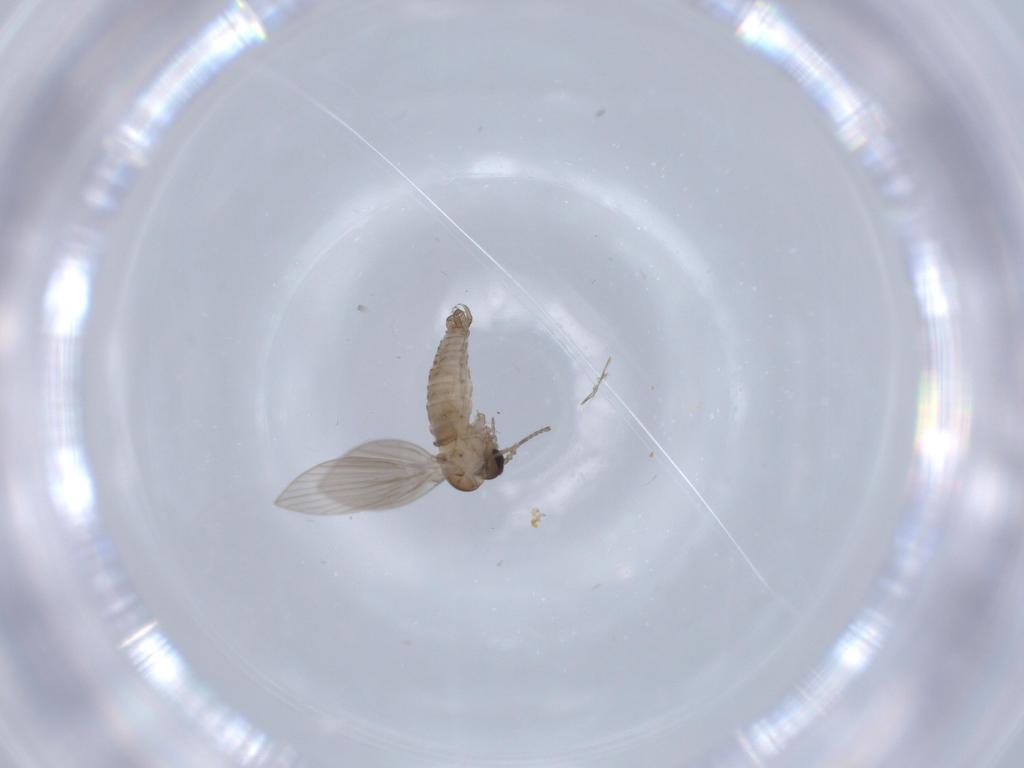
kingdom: Animalia
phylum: Arthropoda
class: Insecta
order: Diptera
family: Psychodidae
